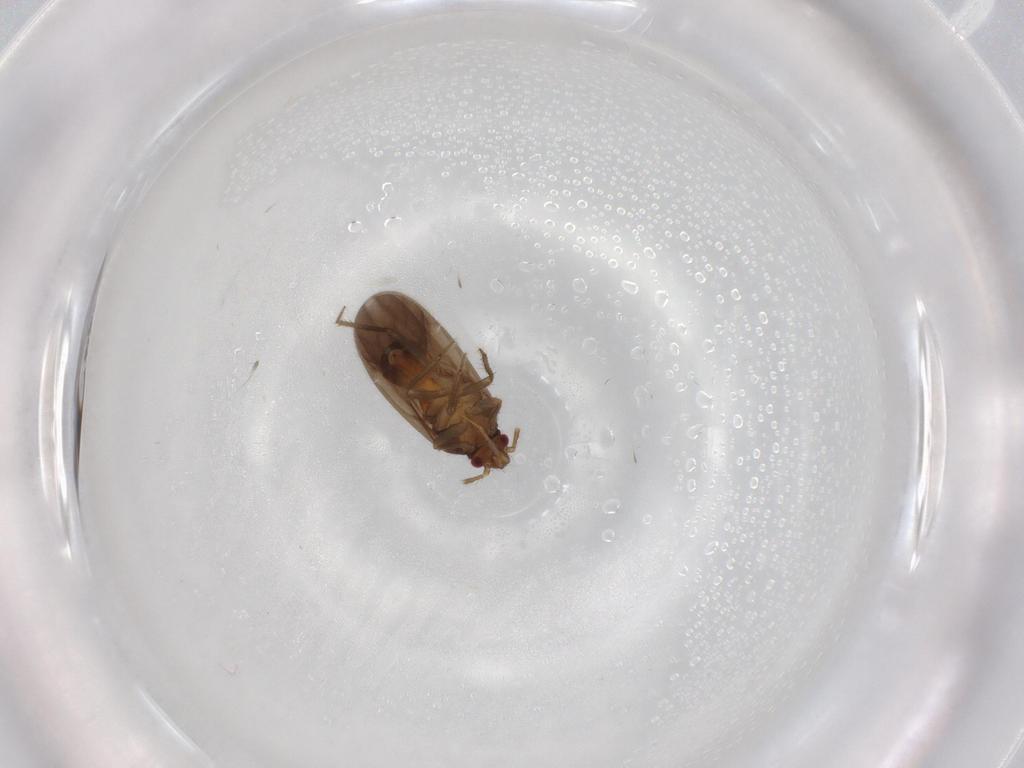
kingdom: Animalia
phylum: Arthropoda
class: Insecta
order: Hemiptera
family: Ceratocombidae
